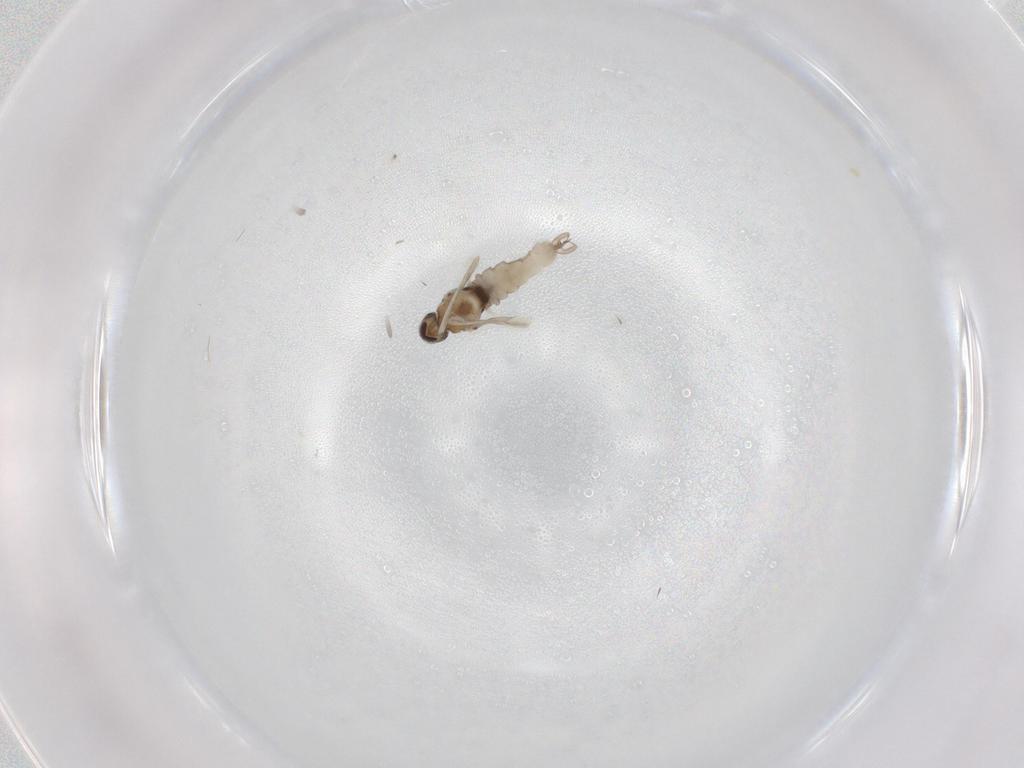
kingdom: Animalia
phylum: Arthropoda
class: Insecta
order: Diptera
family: Cecidomyiidae
